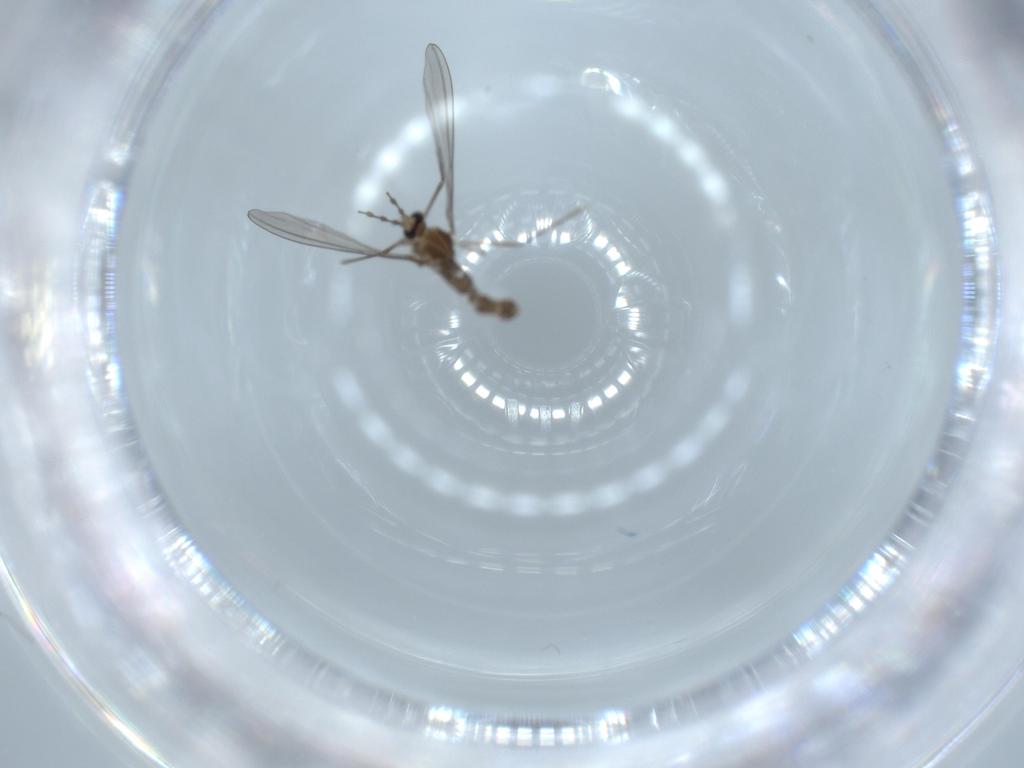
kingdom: Animalia
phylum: Arthropoda
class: Insecta
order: Diptera
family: Cecidomyiidae
